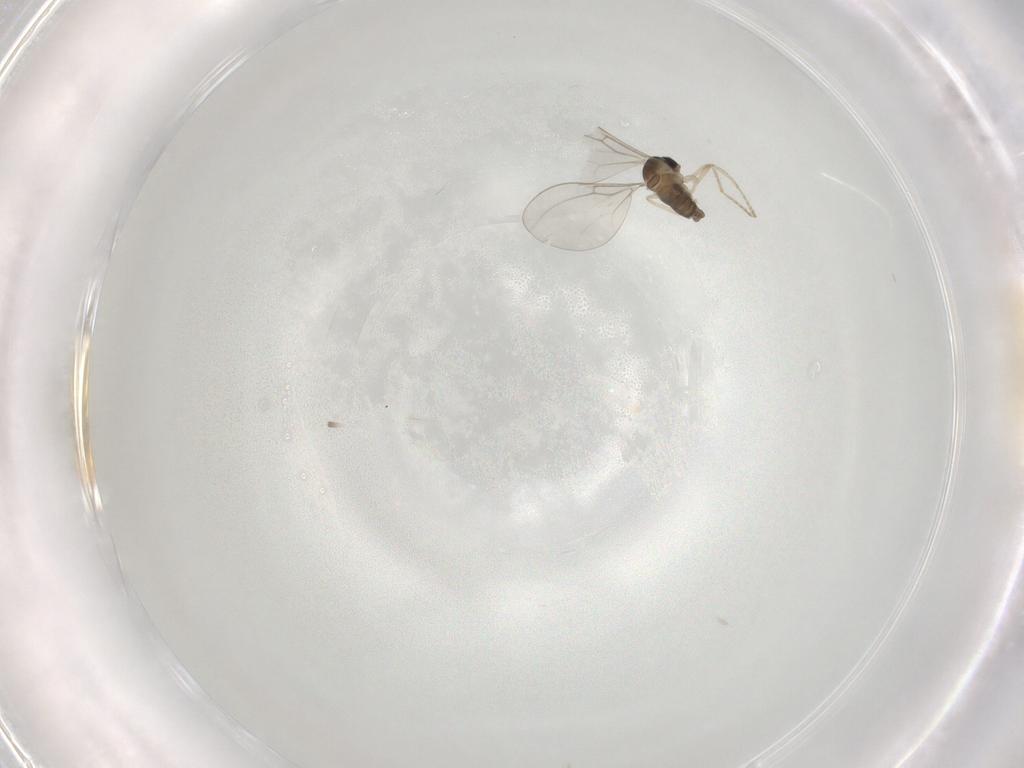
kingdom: Animalia
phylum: Arthropoda
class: Insecta
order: Diptera
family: Cecidomyiidae
